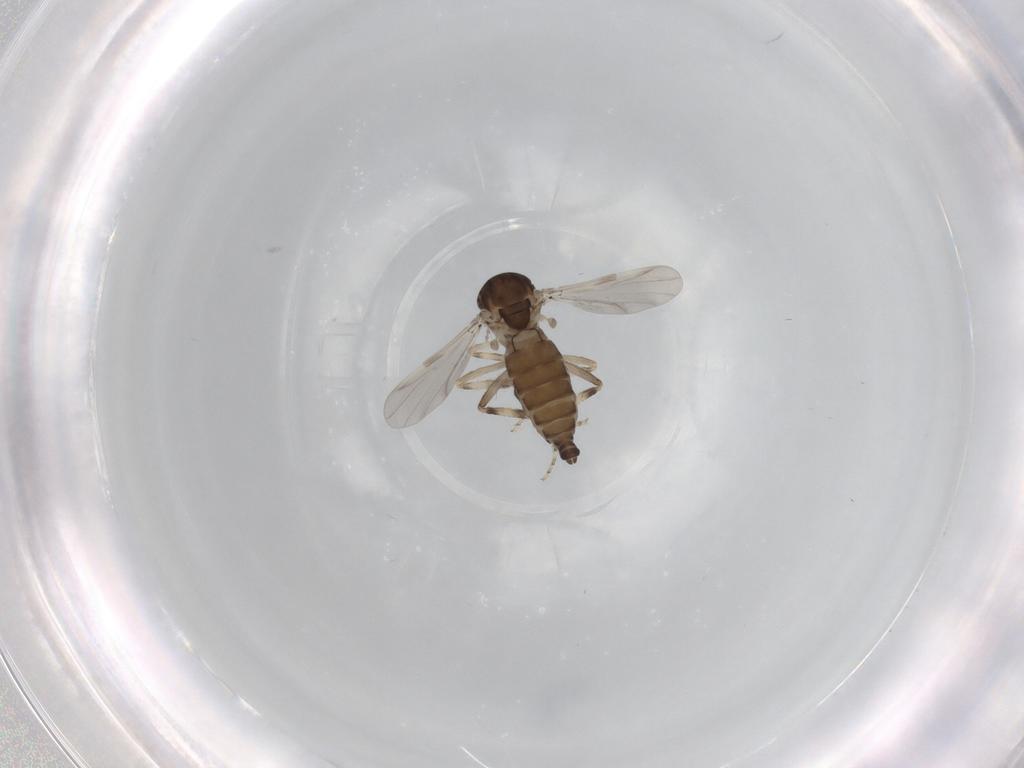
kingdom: Animalia
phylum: Arthropoda
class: Insecta
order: Diptera
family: Ceratopogonidae
